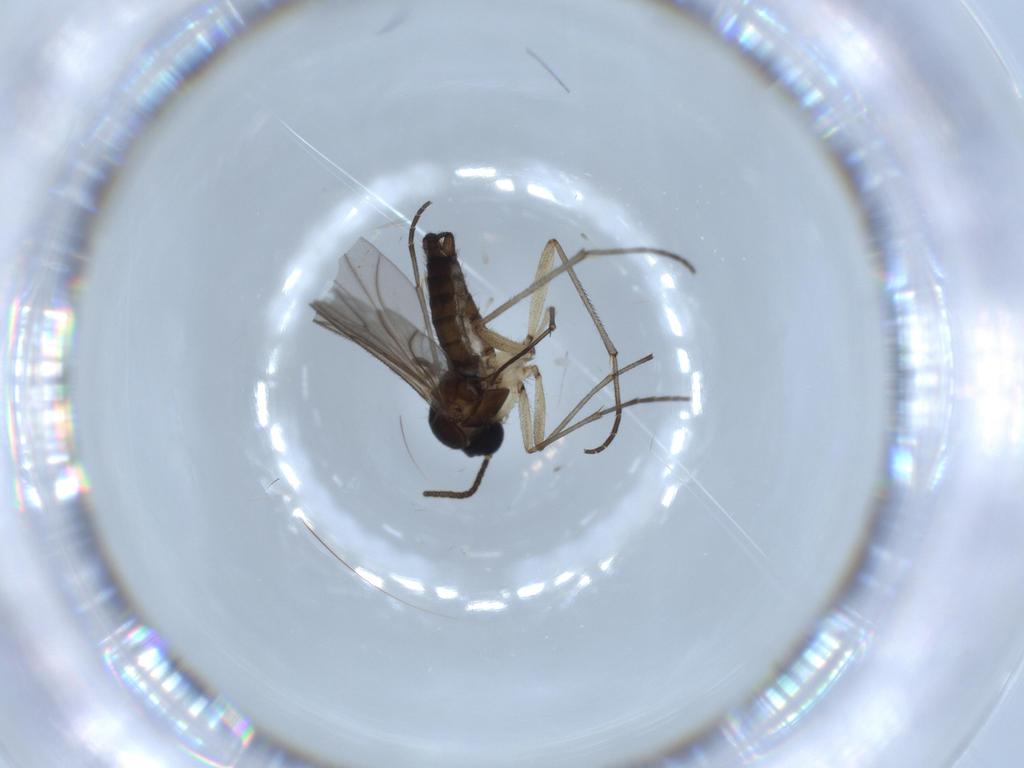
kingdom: Animalia
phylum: Arthropoda
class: Insecta
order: Diptera
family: Sciaridae
